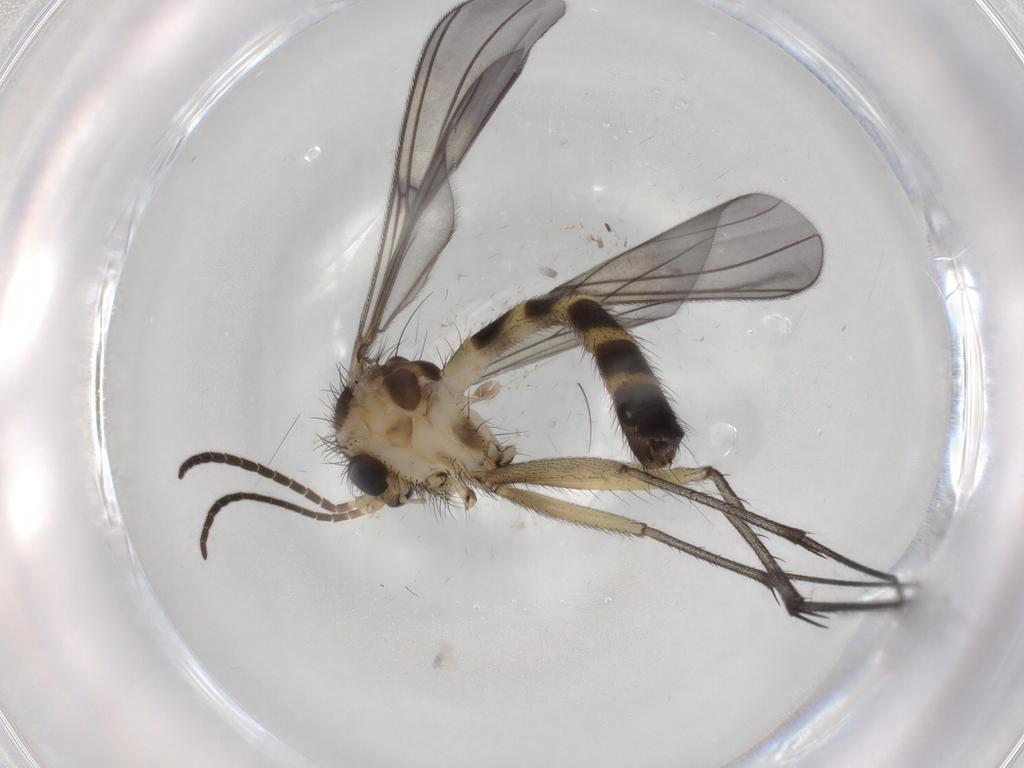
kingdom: Animalia
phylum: Arthropoda
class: Insecta
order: Diptera
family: Mycetophilidae
